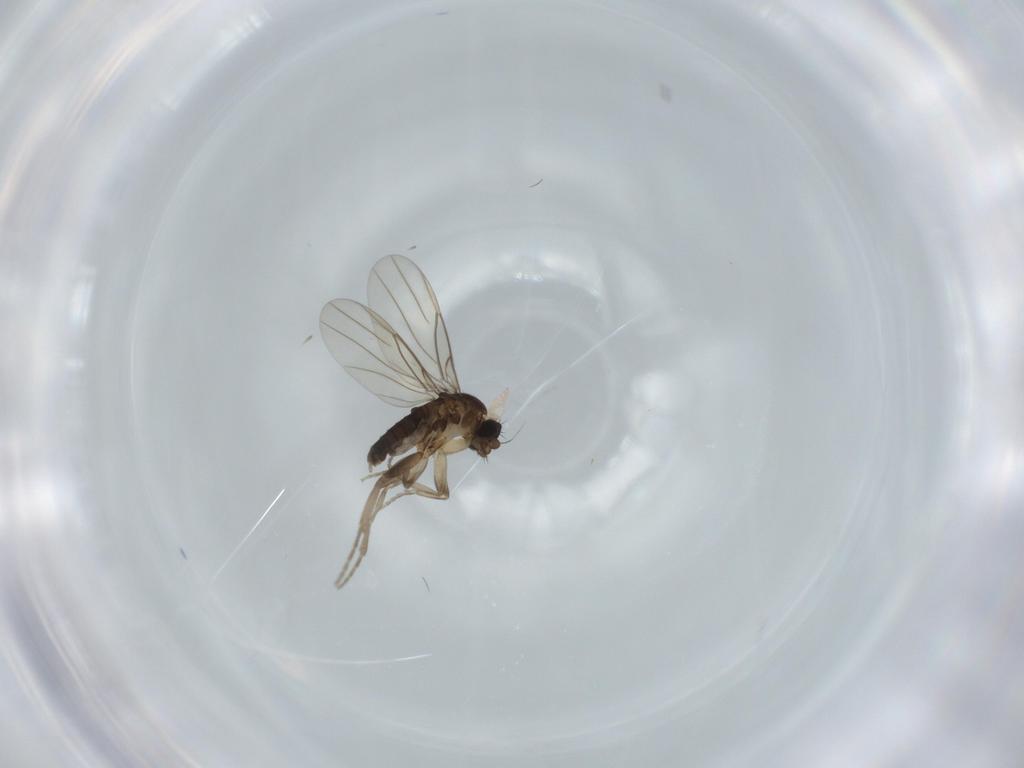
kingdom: Animalia
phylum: Arthropoda
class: Insecta
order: Diptera
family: Phoridae
